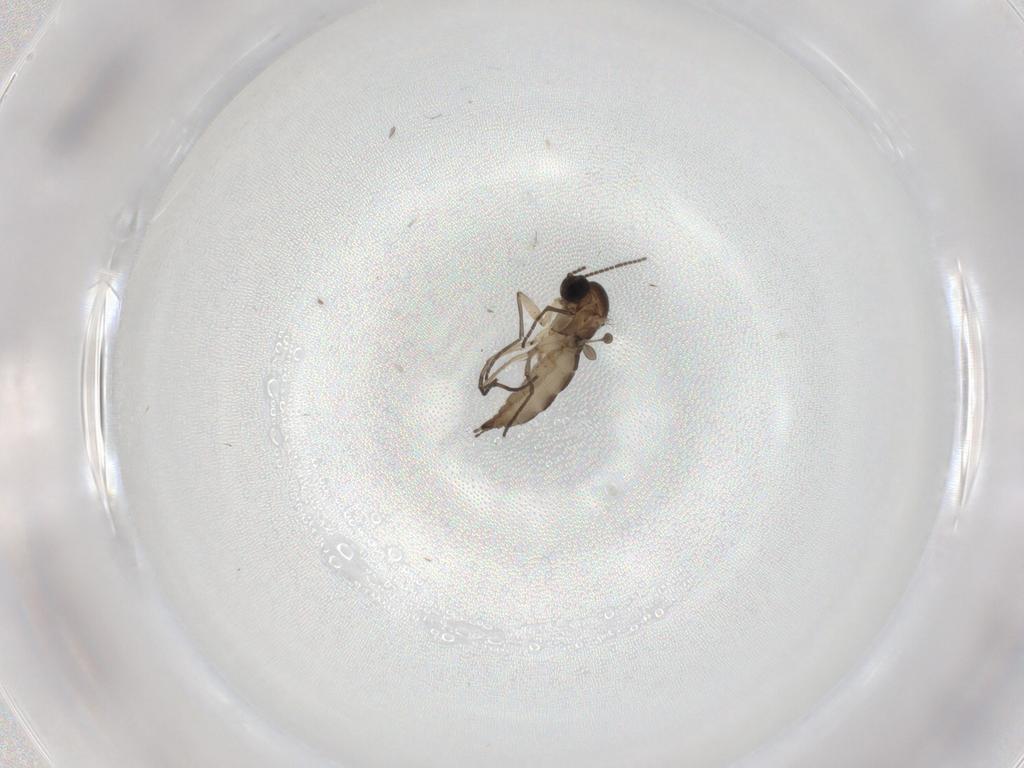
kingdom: Animalia
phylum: Arthropoda
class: Insecta
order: Diptera
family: Sciaridae
